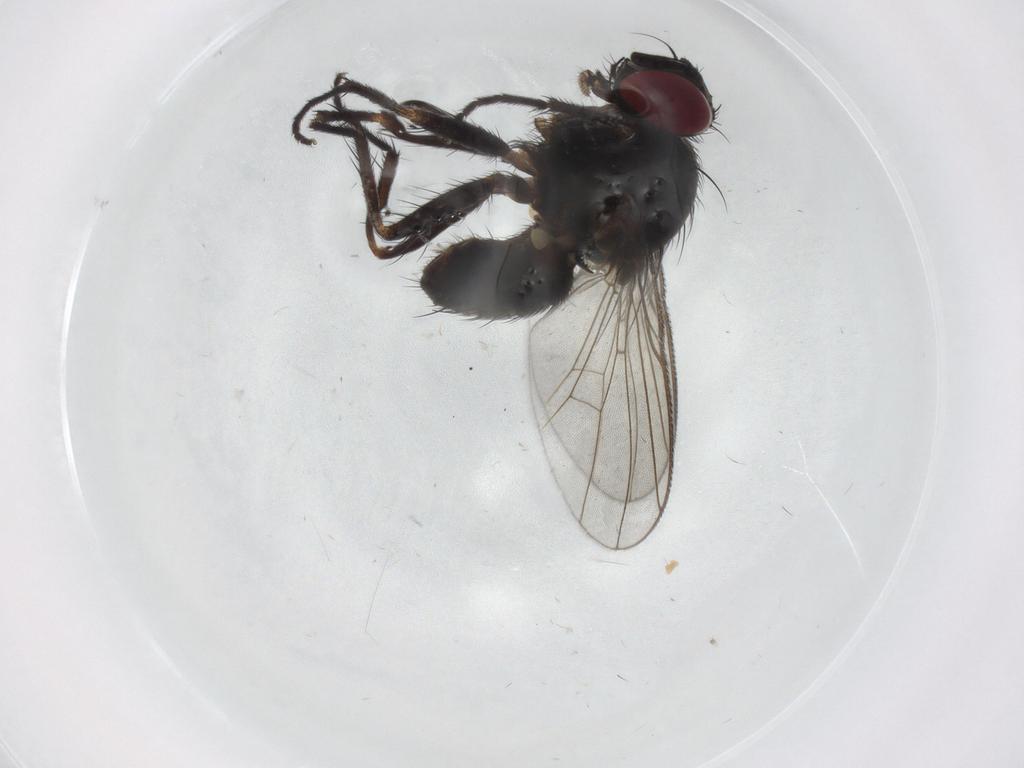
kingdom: Animalia
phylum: Arthropoda
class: Insecta
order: Diptera
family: Muscidae
